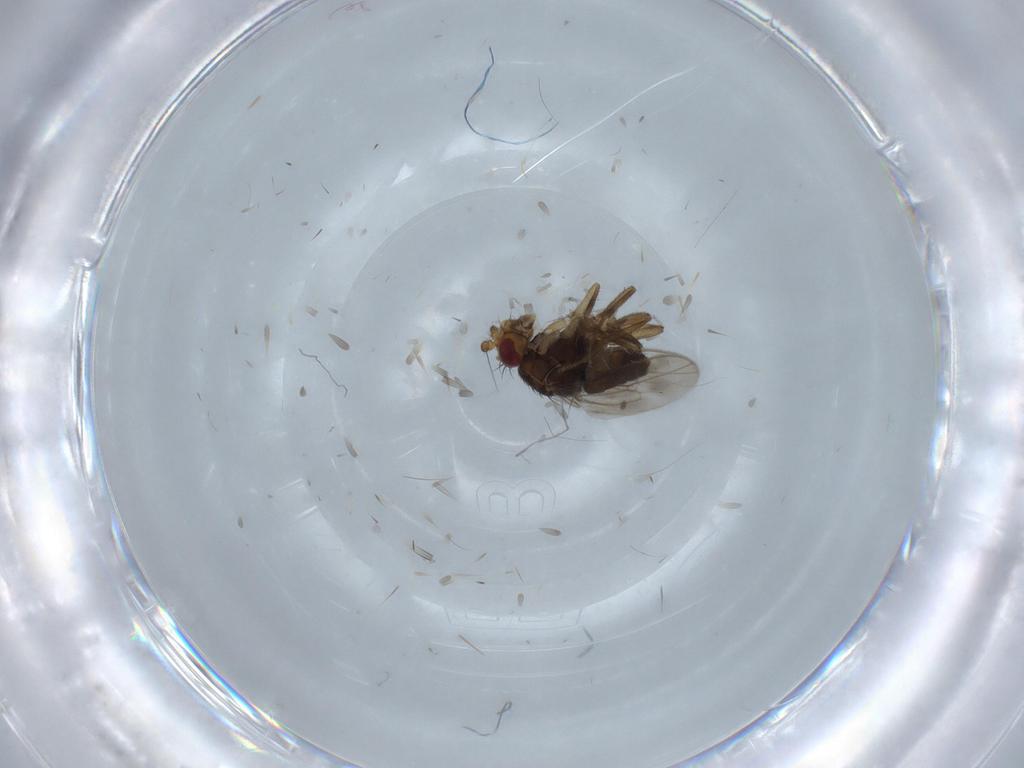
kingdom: Animalia
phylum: Arthropoda
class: Insecta
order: Diptera
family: Sphaeroceridae
